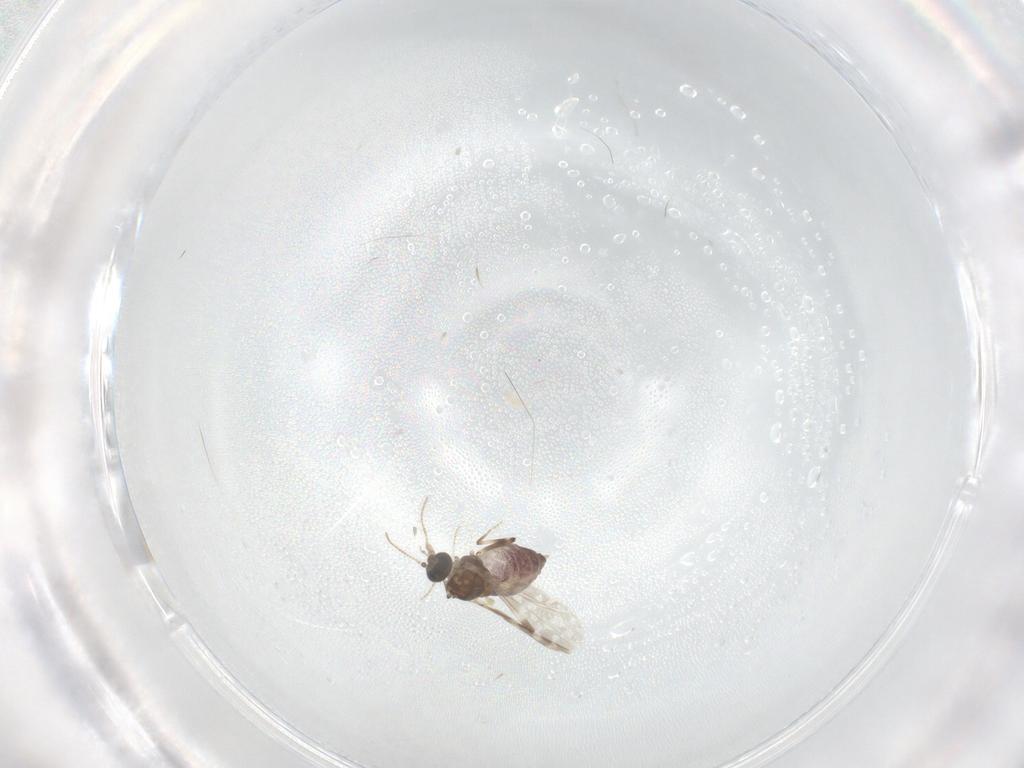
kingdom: Animalia
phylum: Arthropoda
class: Insecta
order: Diptera
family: Ceratopogonidae
